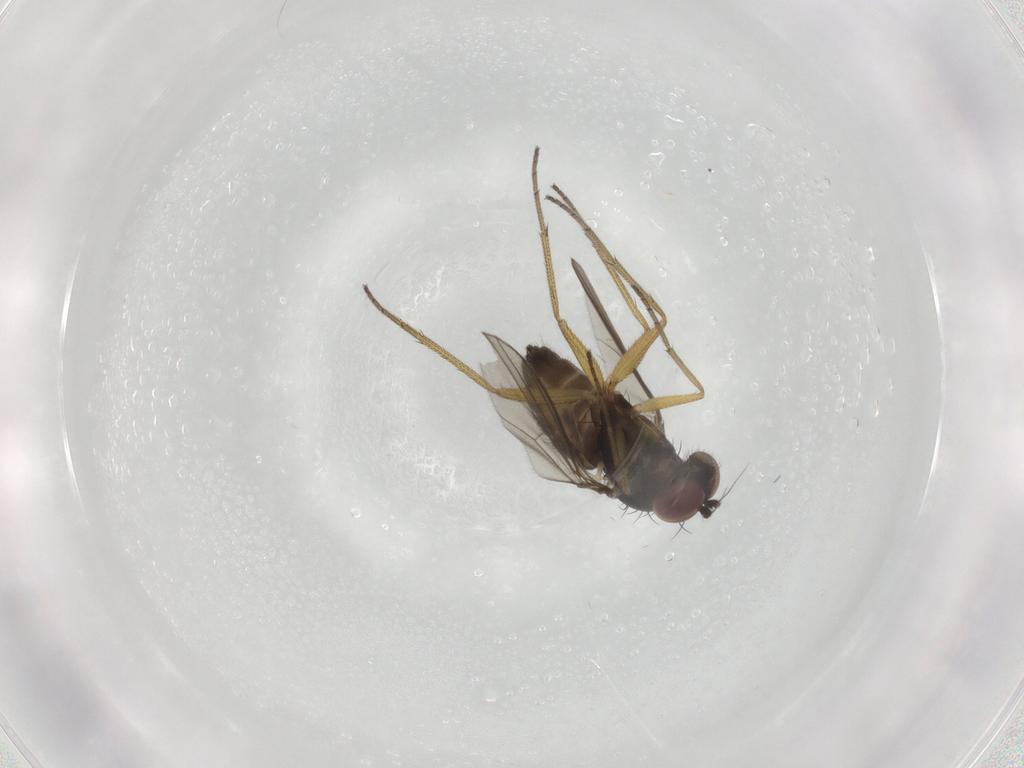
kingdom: Animalia
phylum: Arthropoda
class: Insecta
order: Diptera
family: Dolichopodidae
